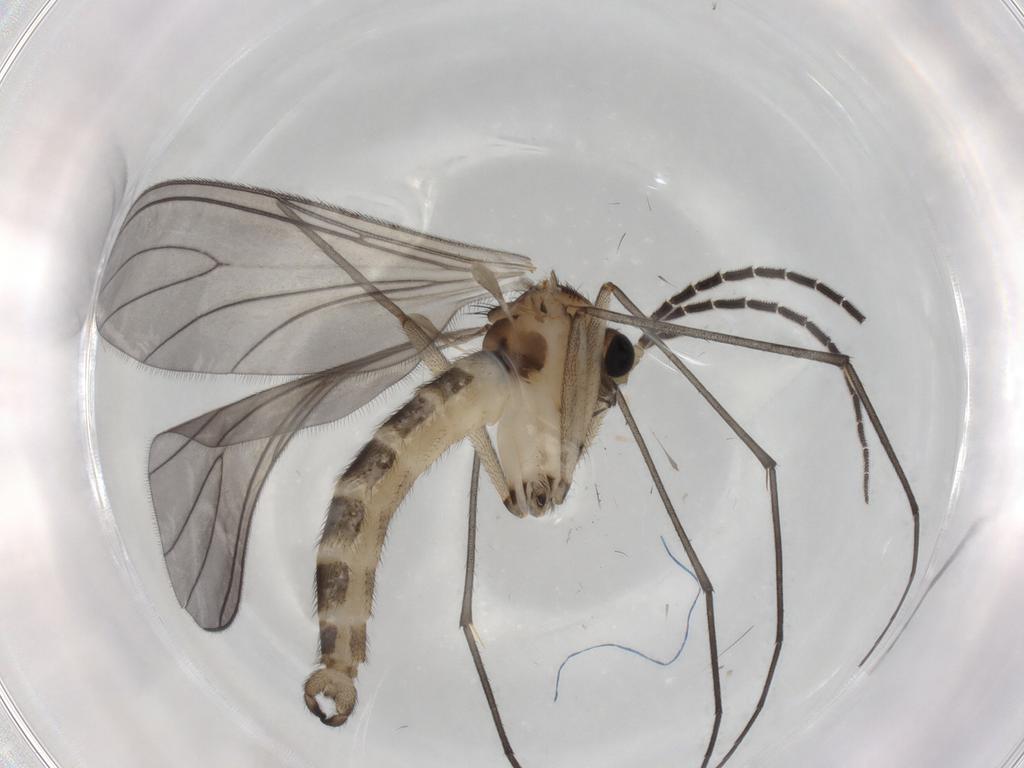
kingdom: Animalia
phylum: Arthropoda
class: Insecta
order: Diptera
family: Sciaridae
